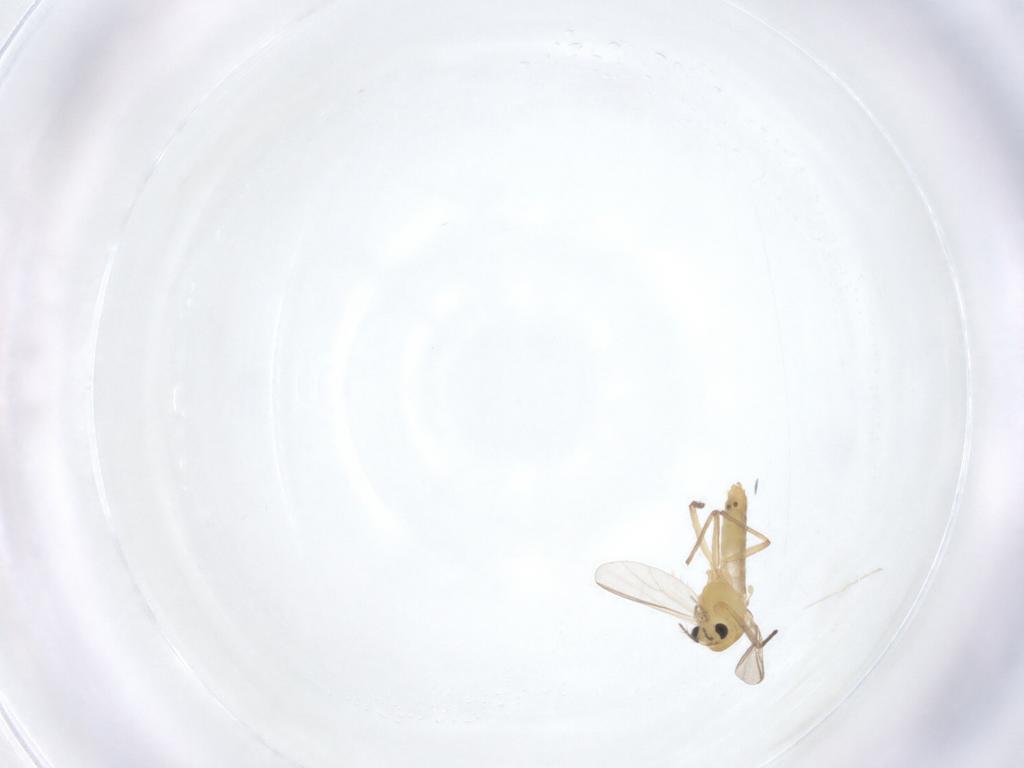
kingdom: Animalia
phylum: Arthropoda
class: Insecta
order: Diptera
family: Chironomidae
